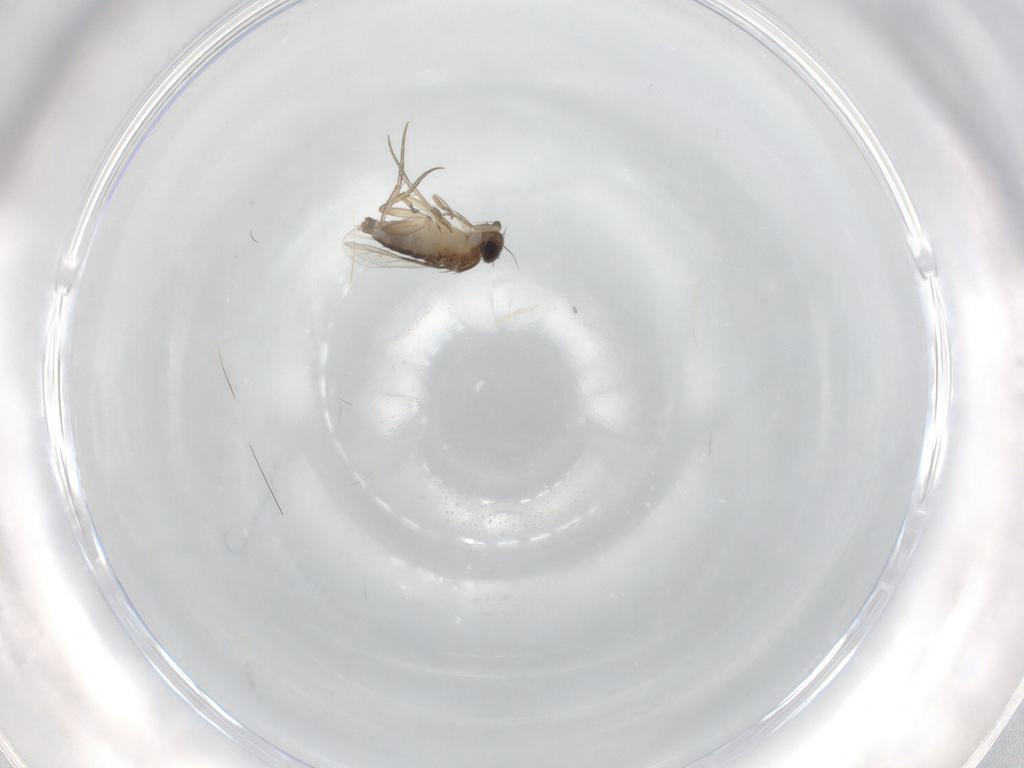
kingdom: Animalia
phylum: Arthropoda
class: Insecta
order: Diptera
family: Phoridae
